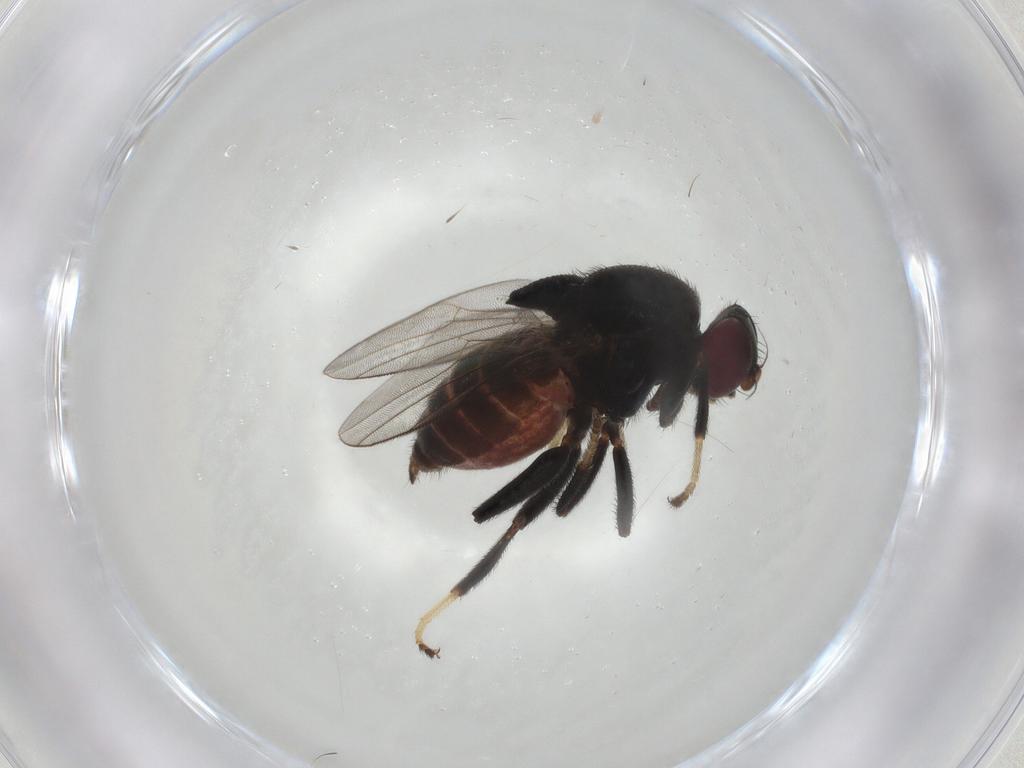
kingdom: Animalia
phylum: Arthropoda
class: Insecta
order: Diptera
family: Chloropidae
